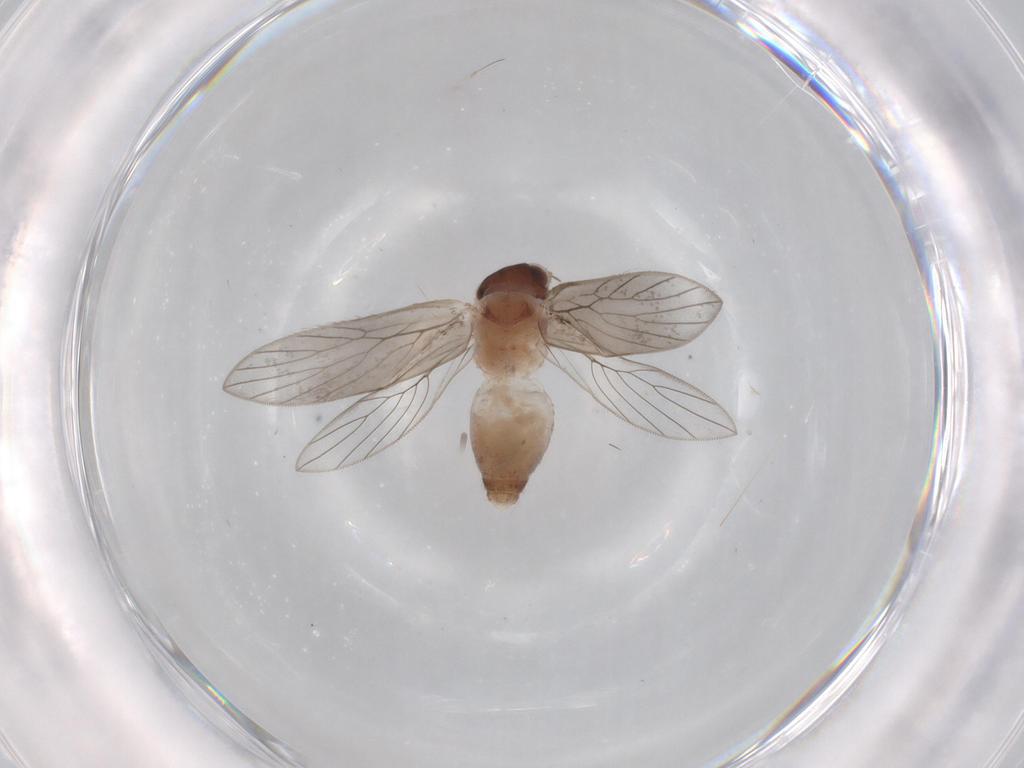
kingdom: Animalia
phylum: Arthropoda
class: Insecta
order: Psocodea
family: Lepidopsocidae
